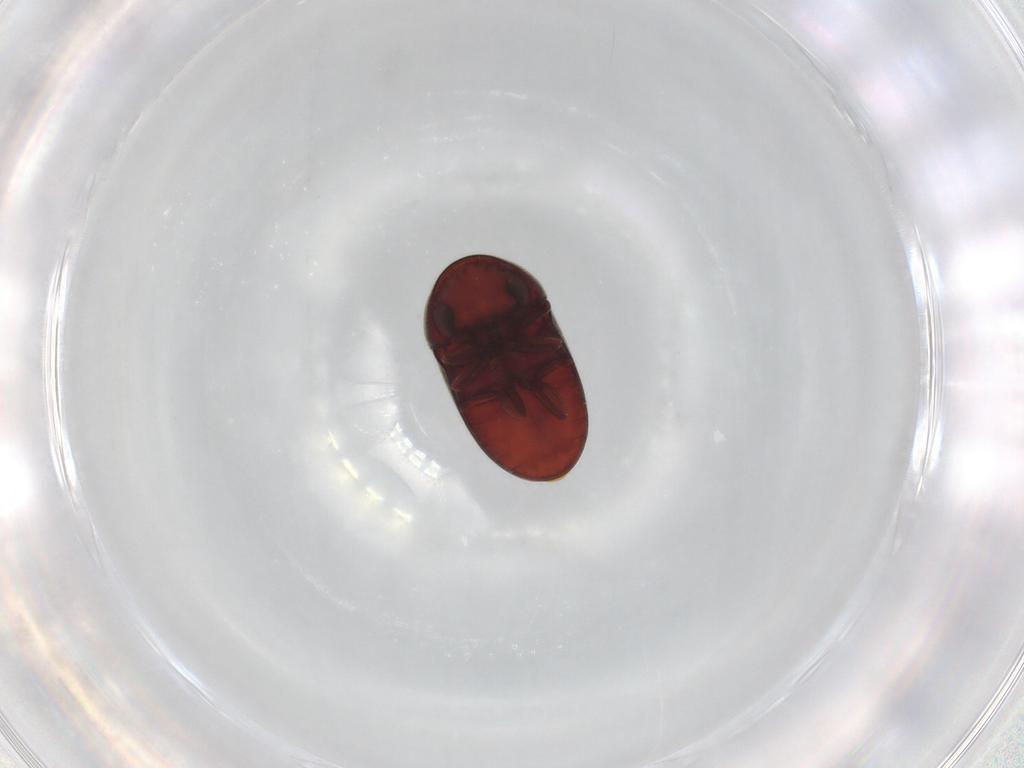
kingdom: Animalia
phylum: Arthropoda
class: Insecta
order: Coleoptera
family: Ptinidae
